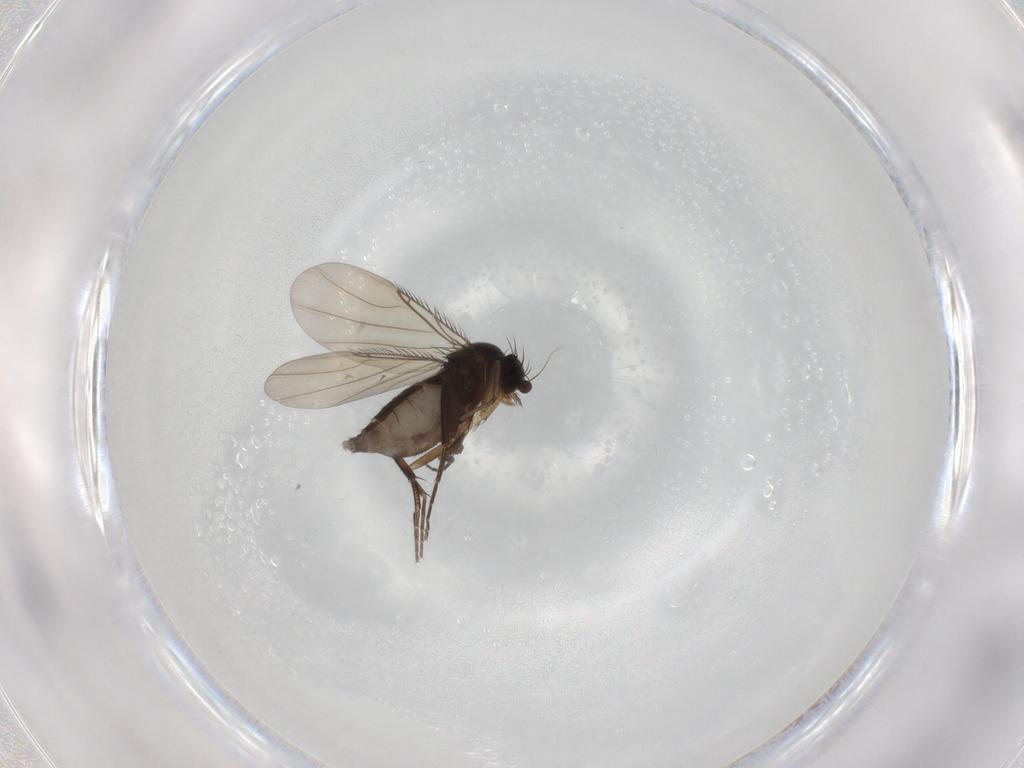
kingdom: Animalia
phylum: Arthropoda
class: Insecta
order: Diptera
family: Phoridae
